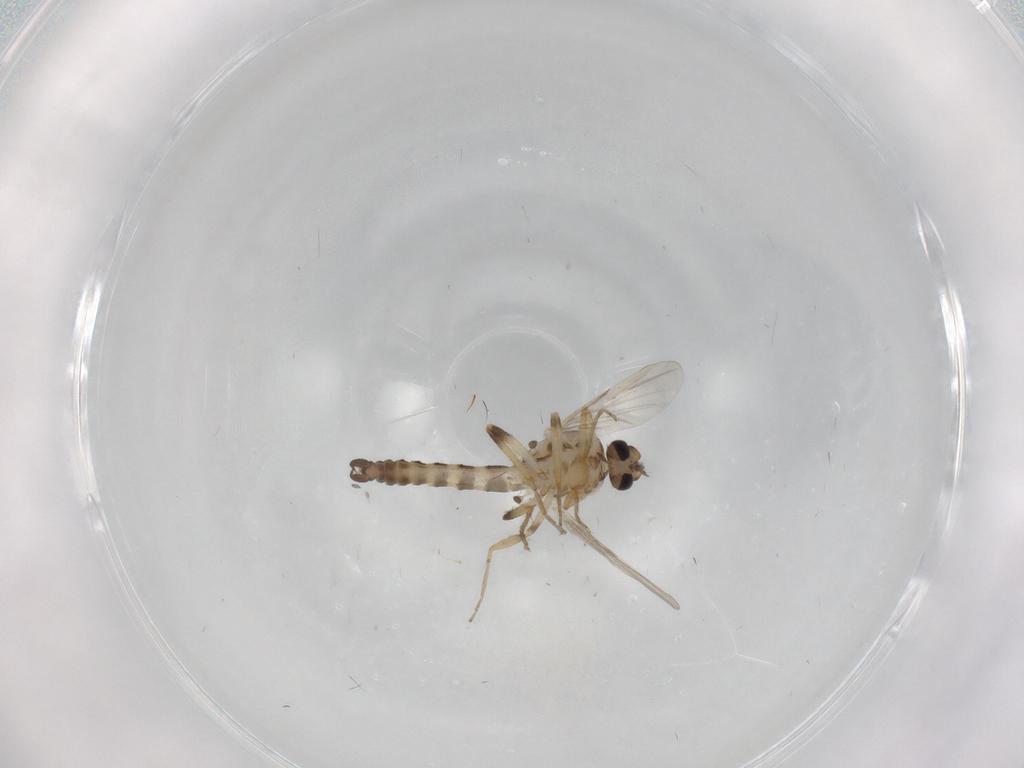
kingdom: Animalia
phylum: Arthropoda
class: Insecta
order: Diptera
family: Ceratopogonidae
